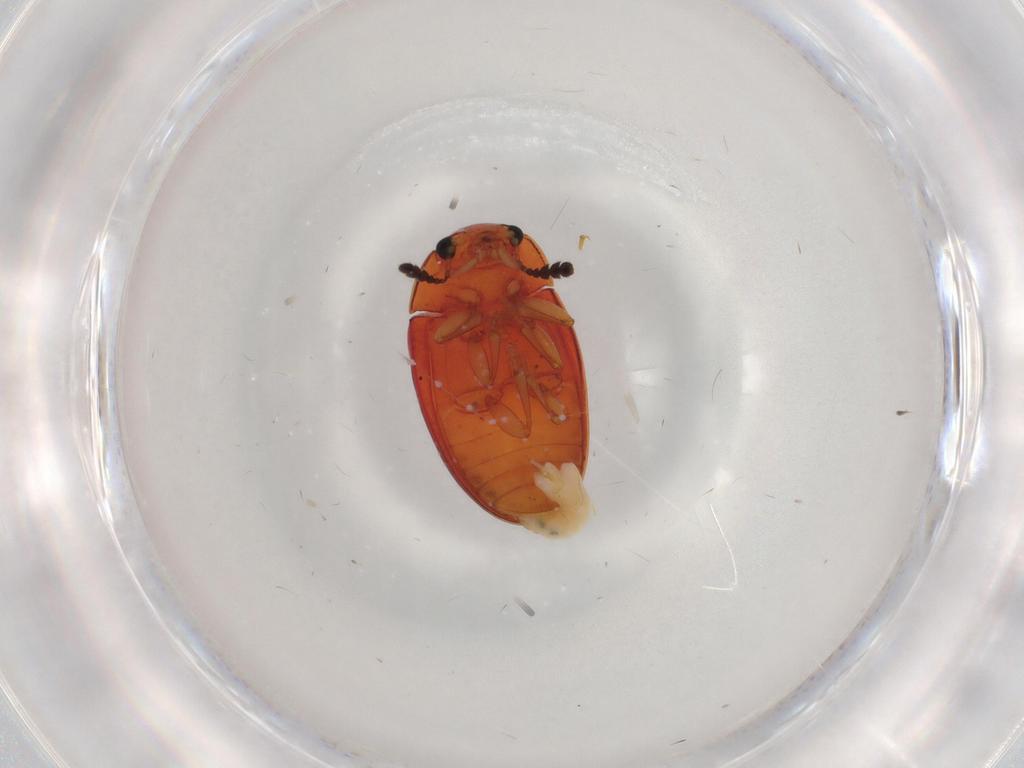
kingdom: Animalia
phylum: Arthropoda
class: Insecta
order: Coleoptera
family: Erotylidae
